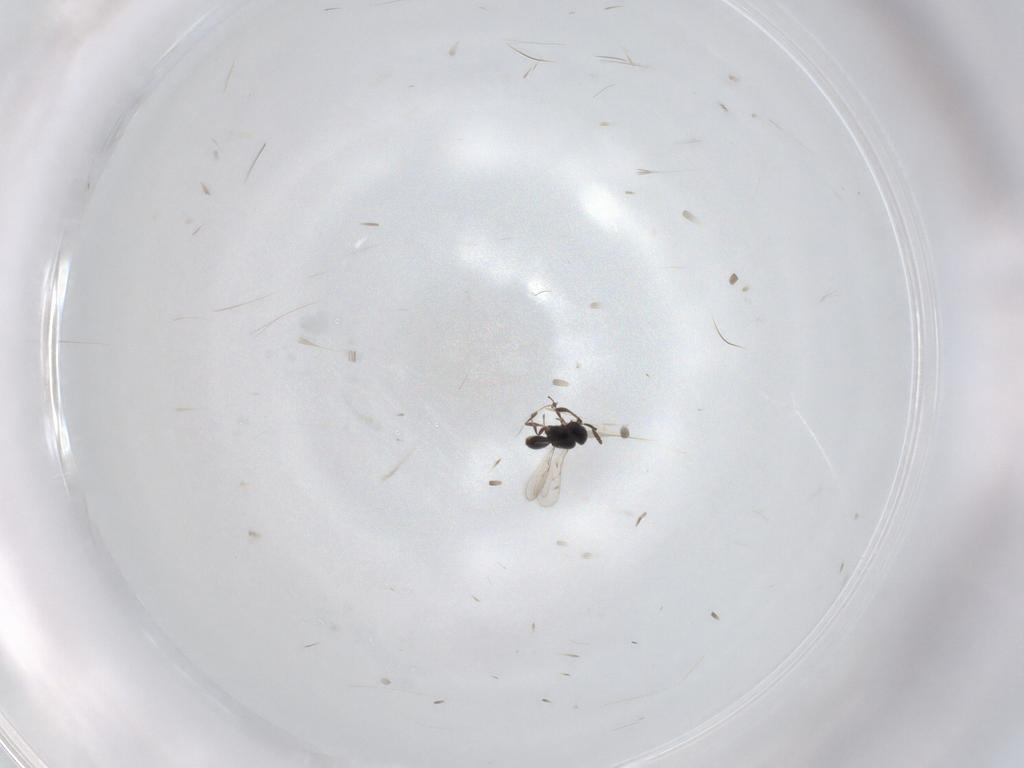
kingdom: Animalia
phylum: Arthropoda
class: Insecta
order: Hymenoptera
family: Scelionidae
